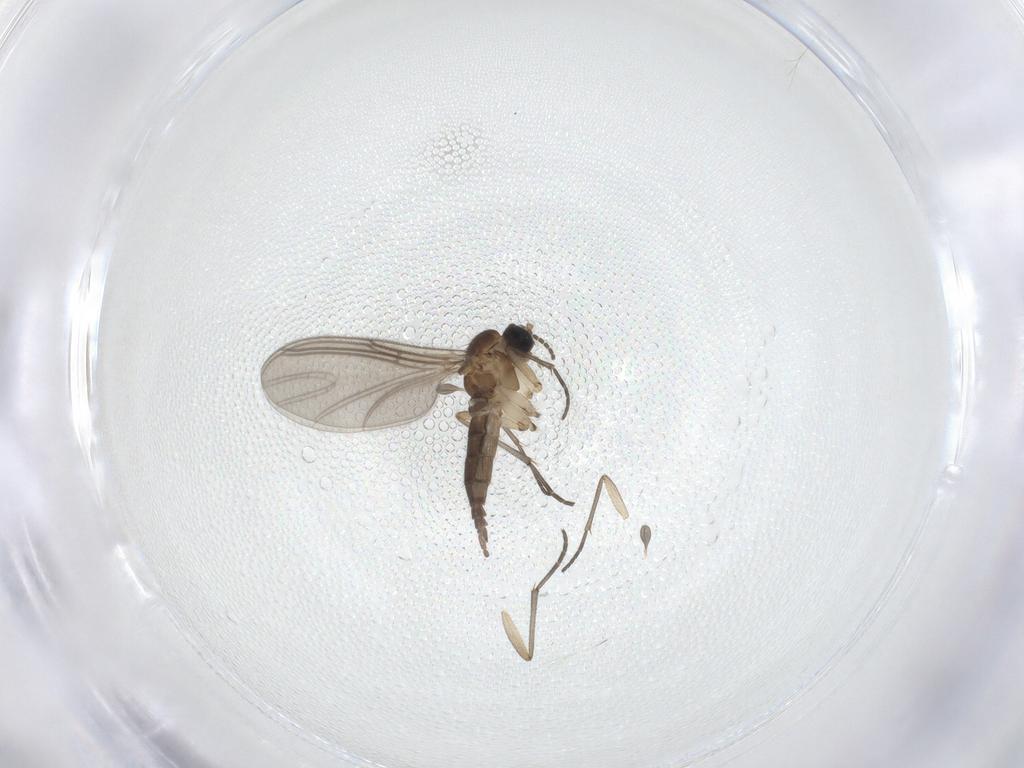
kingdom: Animalia
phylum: Arthropoda
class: Insecta
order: Diptera
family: Sciaridae
